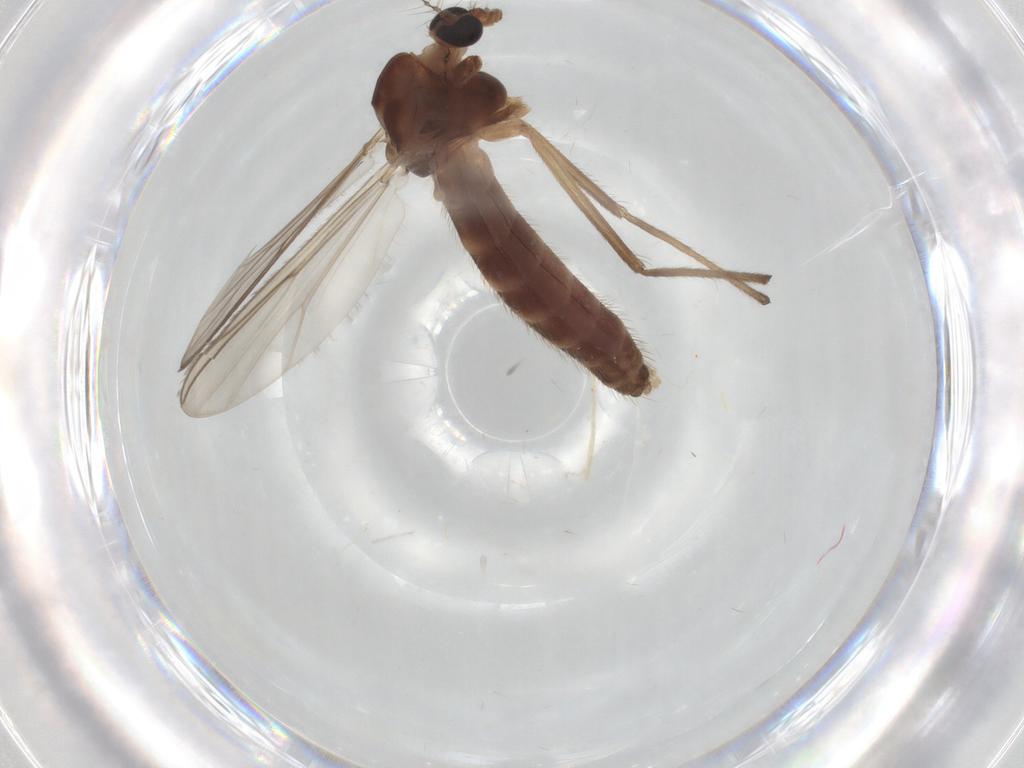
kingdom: Animalia
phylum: Arthropoda
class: Insecta
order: Diptera
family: Chironomidae
